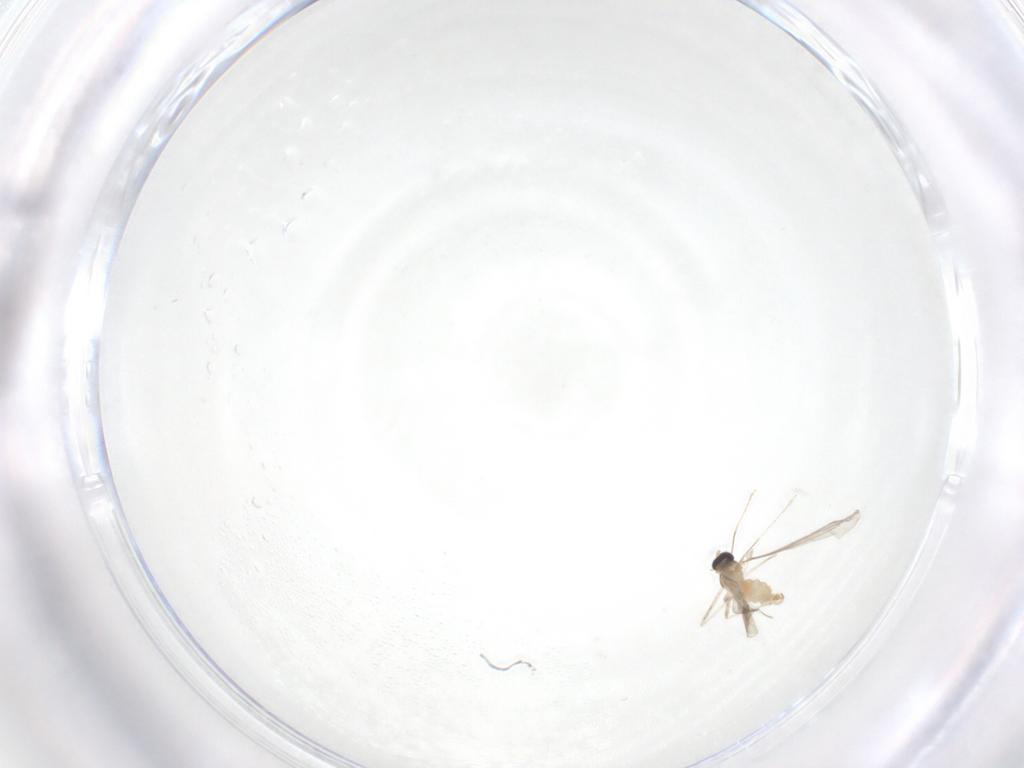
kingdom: Animalia
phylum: Arthropoda
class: Insecta
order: Diptera
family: Cecidomyiidae
